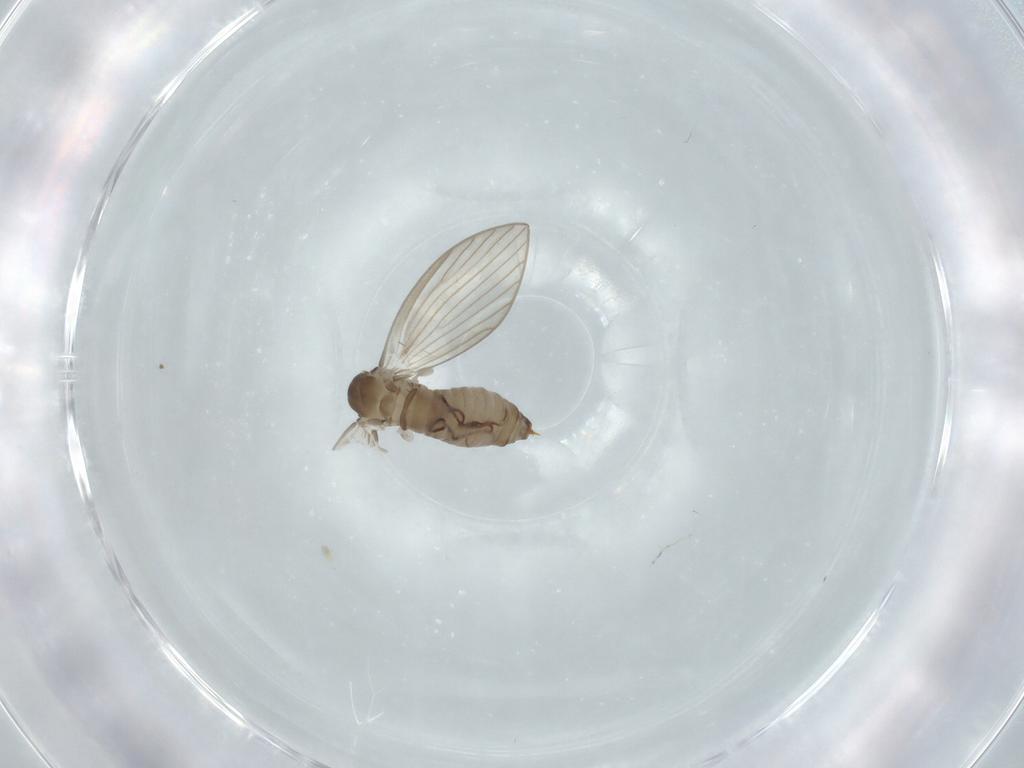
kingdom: Animalia
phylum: Arthropoda
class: Insecta
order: Diptera
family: Psychodidae
